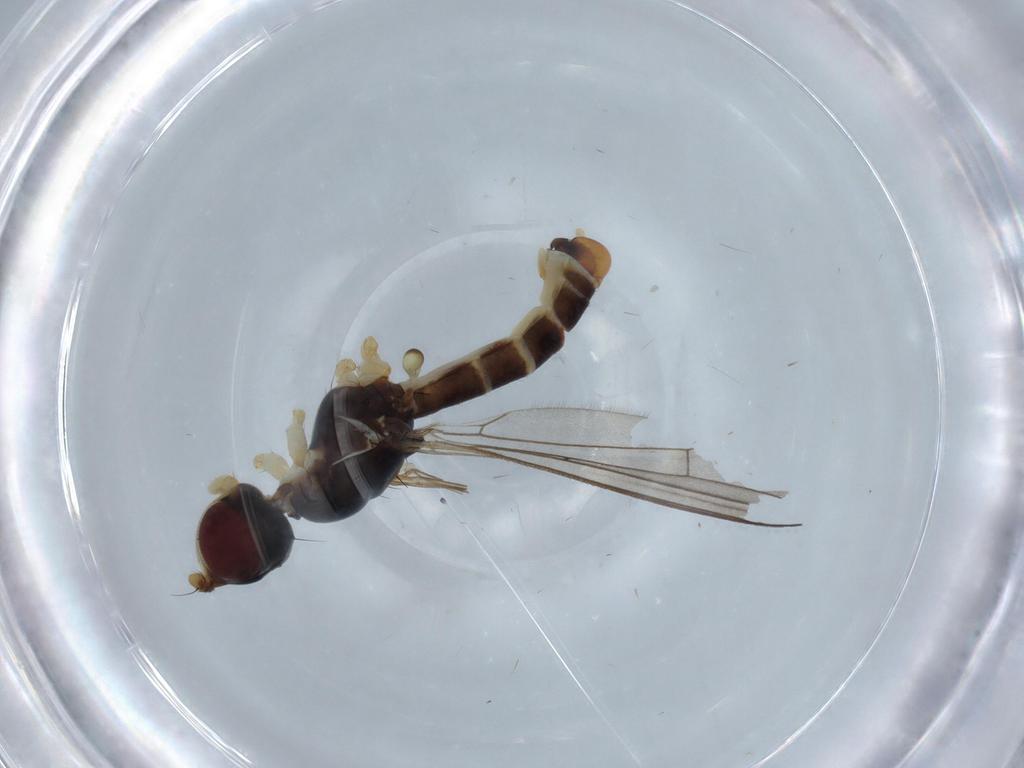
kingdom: Animalia
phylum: Arthropoda
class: Insecta
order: Diptera
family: Micropezidae
